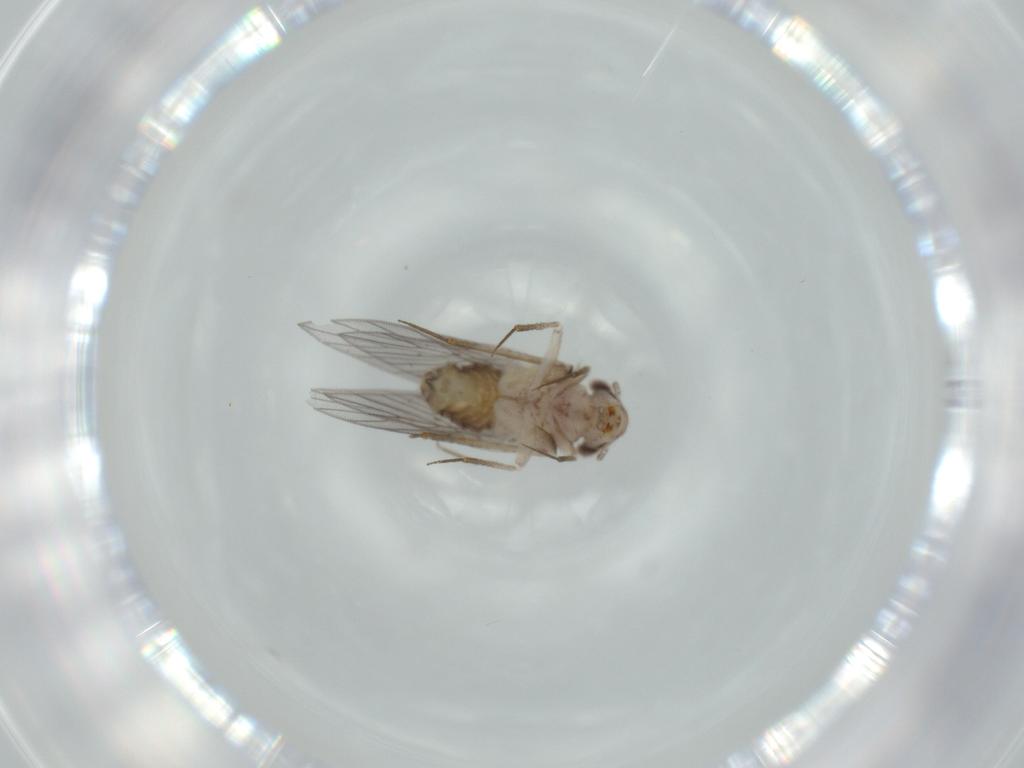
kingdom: Animalia
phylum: Arthropoda
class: Insecta
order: Psocodea
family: Lepidopsocidae
